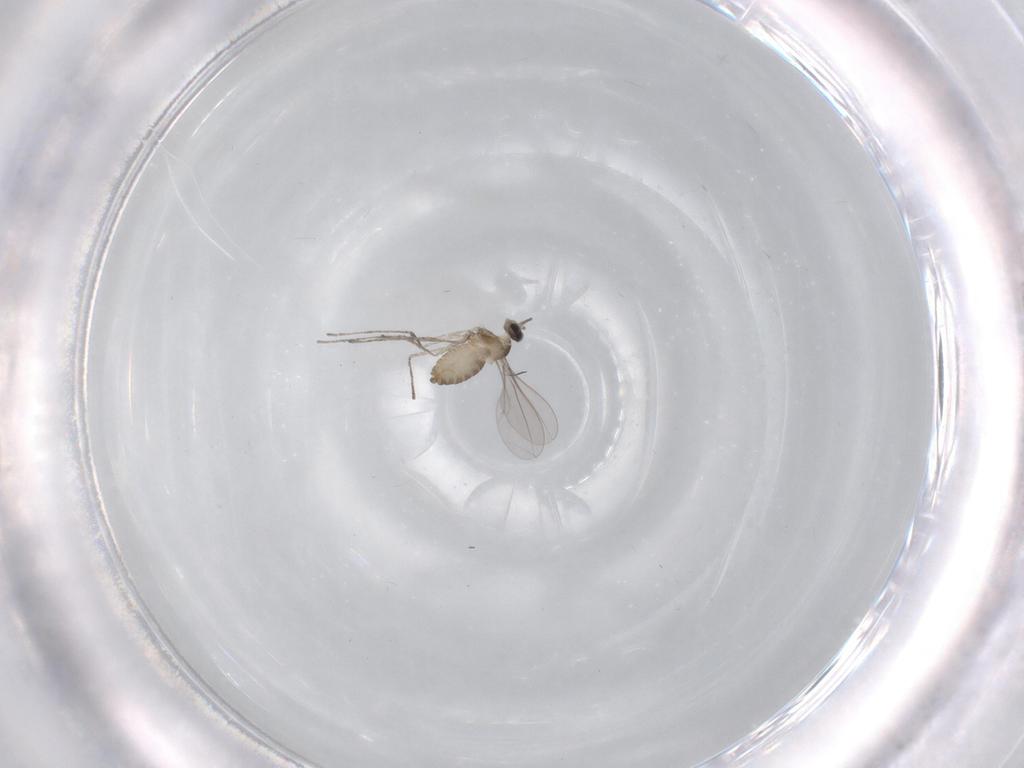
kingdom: Animalia
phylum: Arthropoda
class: Insecta
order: Diptera
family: Cecidomyiidae
